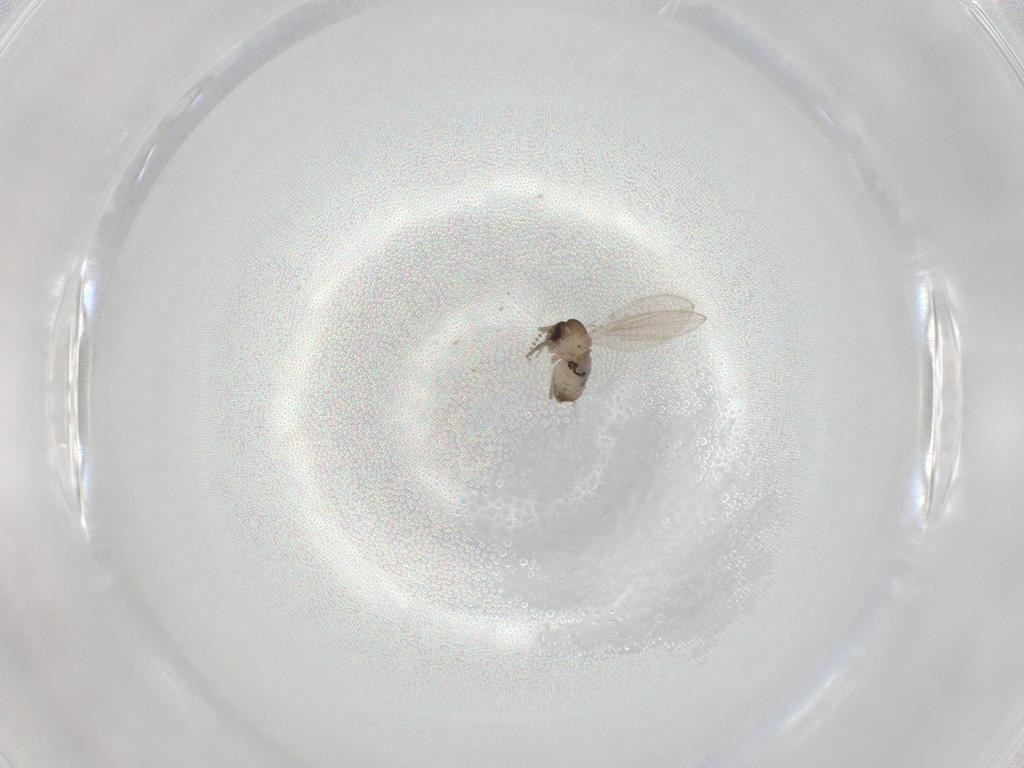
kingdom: Animalia
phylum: Arthropoda
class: Insecta
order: Diptera
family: Psychodidae
